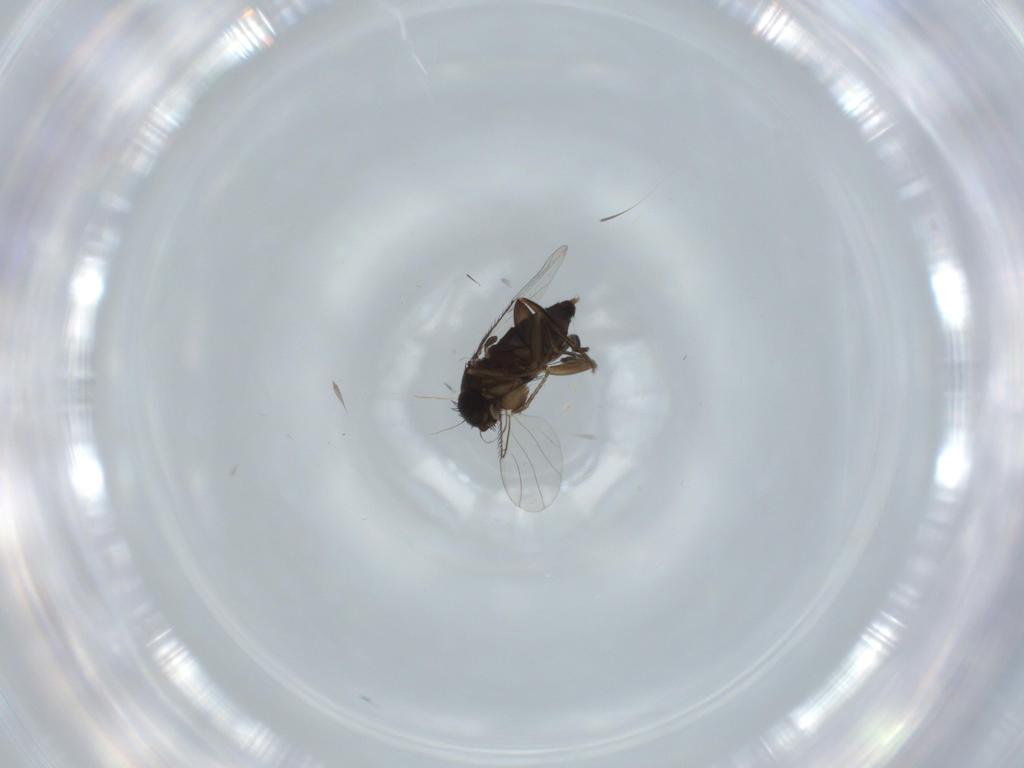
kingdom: Animalia
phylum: Arthropoda
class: Insecta
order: Diptera
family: Phoridae
